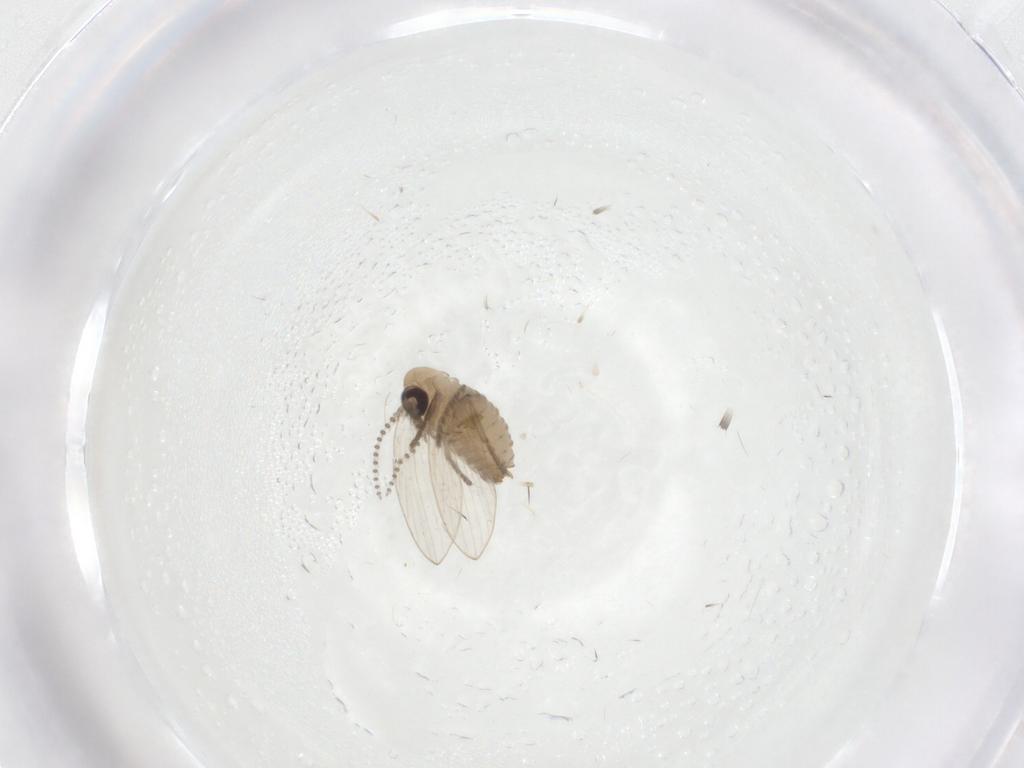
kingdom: Animalia
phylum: Arthropoda
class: Insecta
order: Diptera
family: Psychodidae
